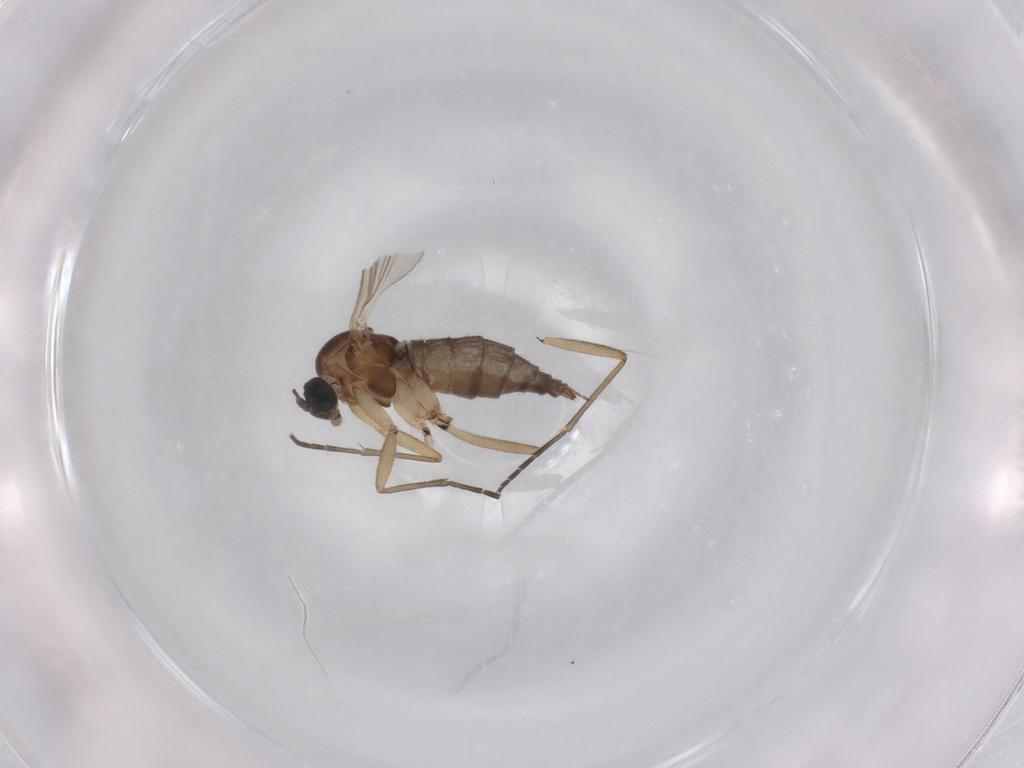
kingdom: Animalia
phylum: Arthropoda
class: Insecta
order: Diptera
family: Sciaridae
